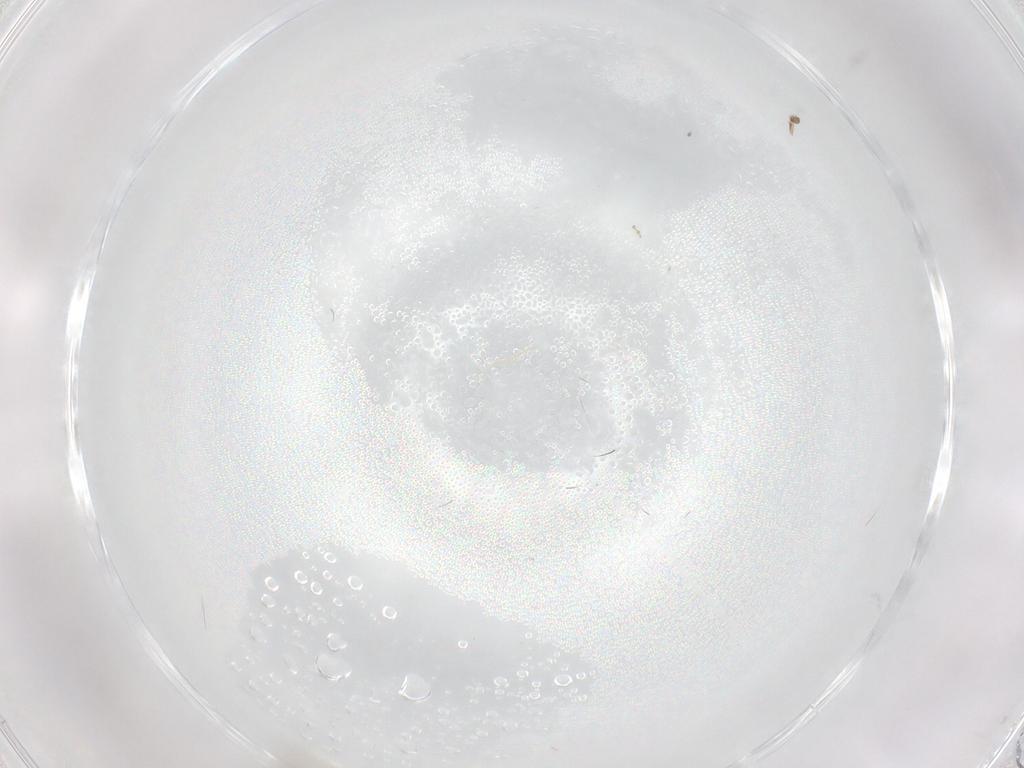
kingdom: Animalia
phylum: Arthropoda
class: Insecta
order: Psocodea
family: Lepidopsocidae
